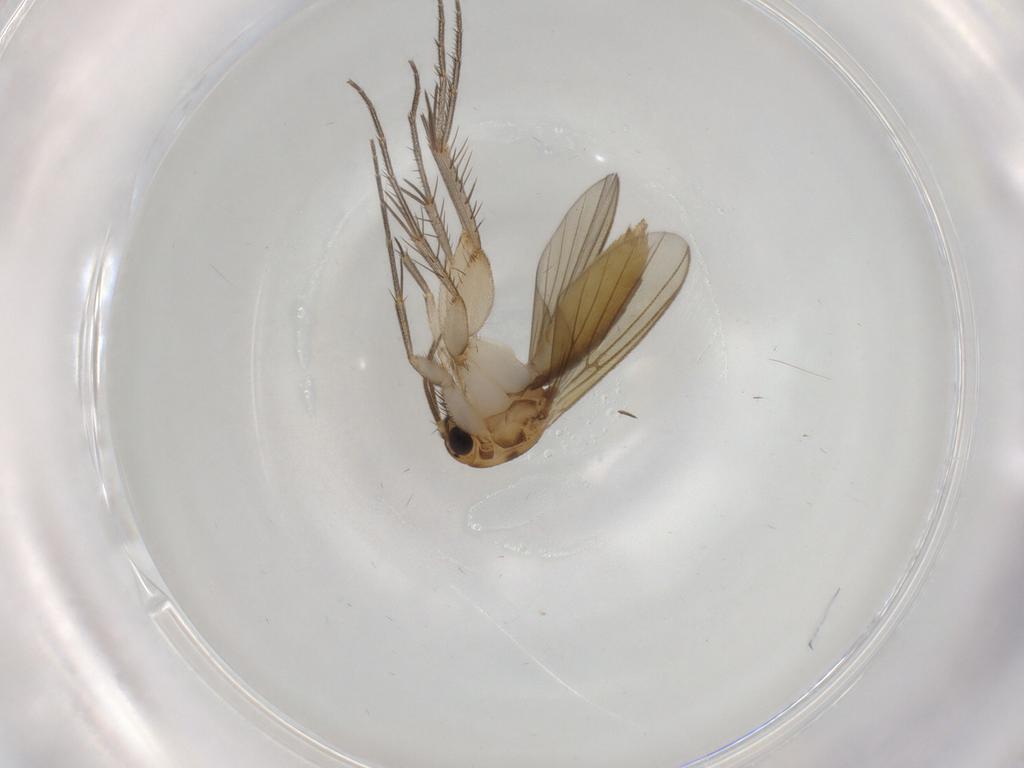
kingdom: Animalia
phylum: Arthropoda
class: Insecta
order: Diptera
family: Mycetophilidae
